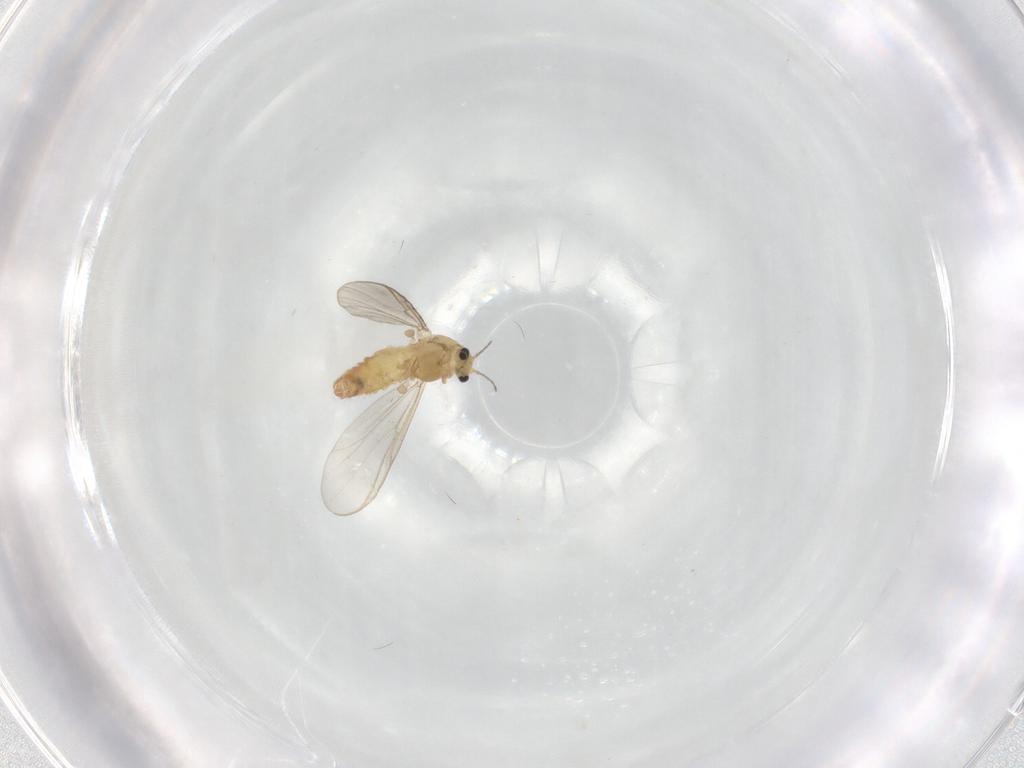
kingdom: Animalia
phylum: Arthropoda
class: Insecta
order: Diptera
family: Chironomidae
